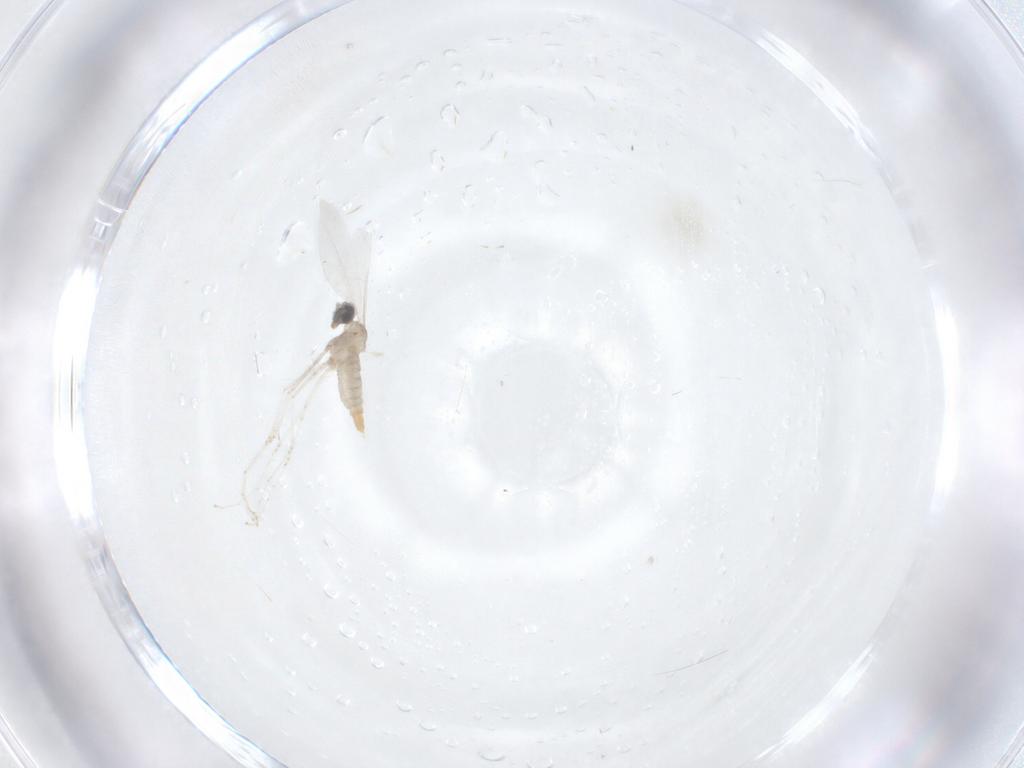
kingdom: Animalia
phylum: Arthropoda
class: Insecta
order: Diptera
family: Cecidomyiidae
